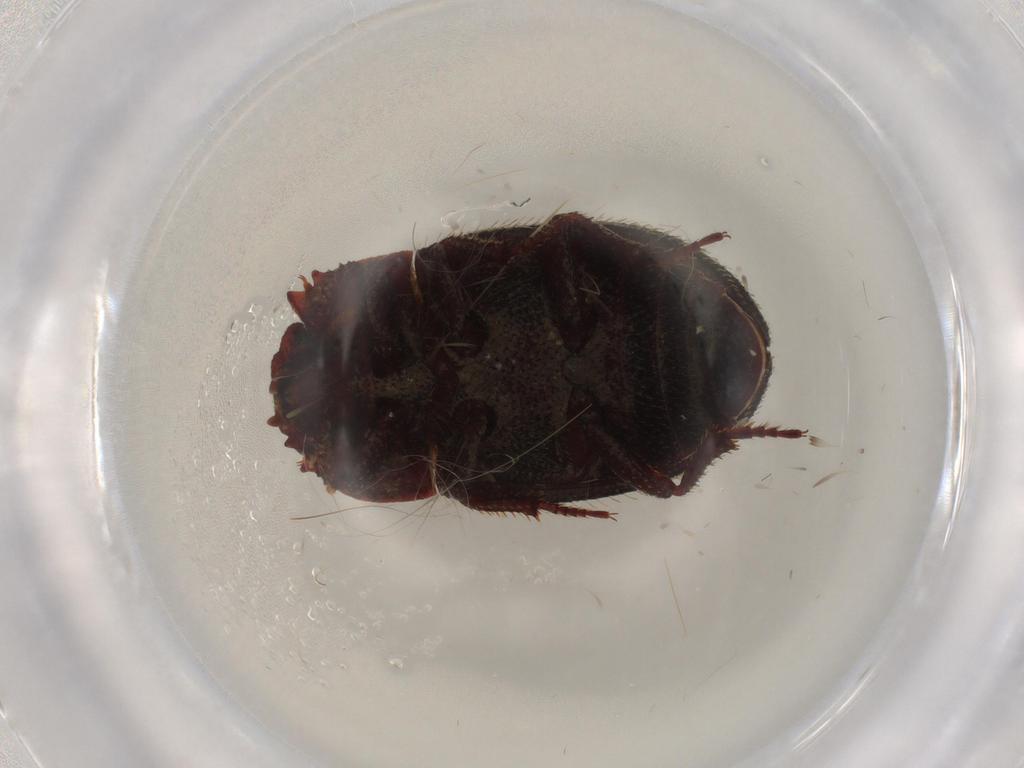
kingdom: Animalia
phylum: Arthropoda
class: Insecta
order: Coleoptera
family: Carabidae
